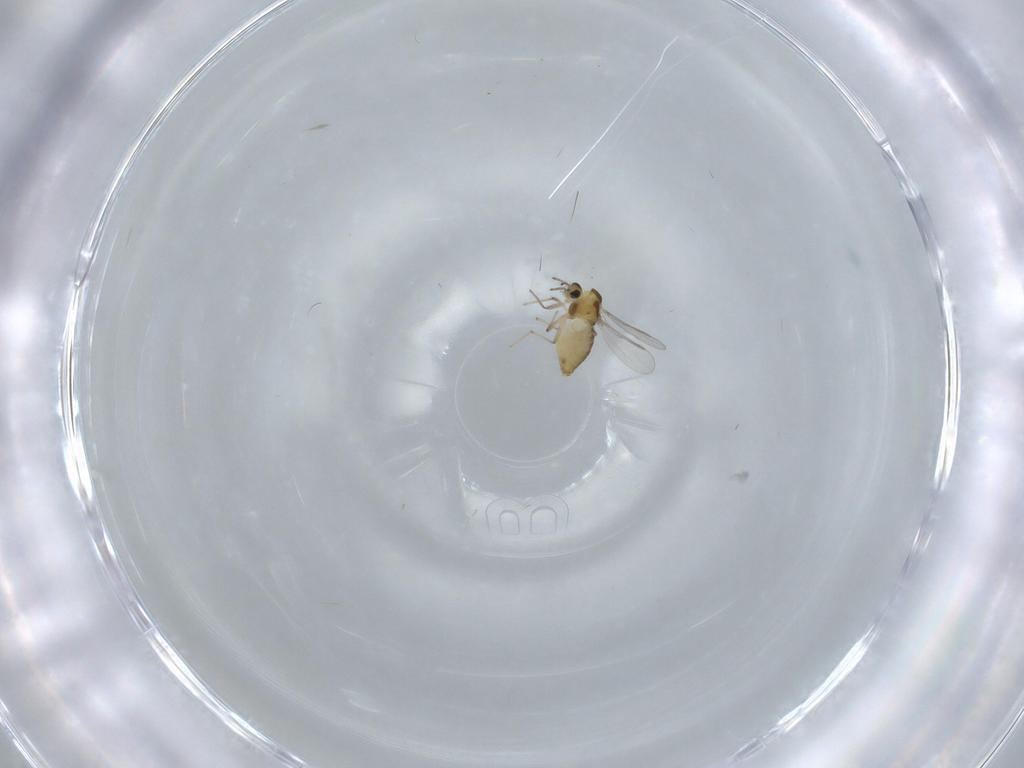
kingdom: Animalia
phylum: Arthropoda
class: Insecta
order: Diptera
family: Chironomidae
